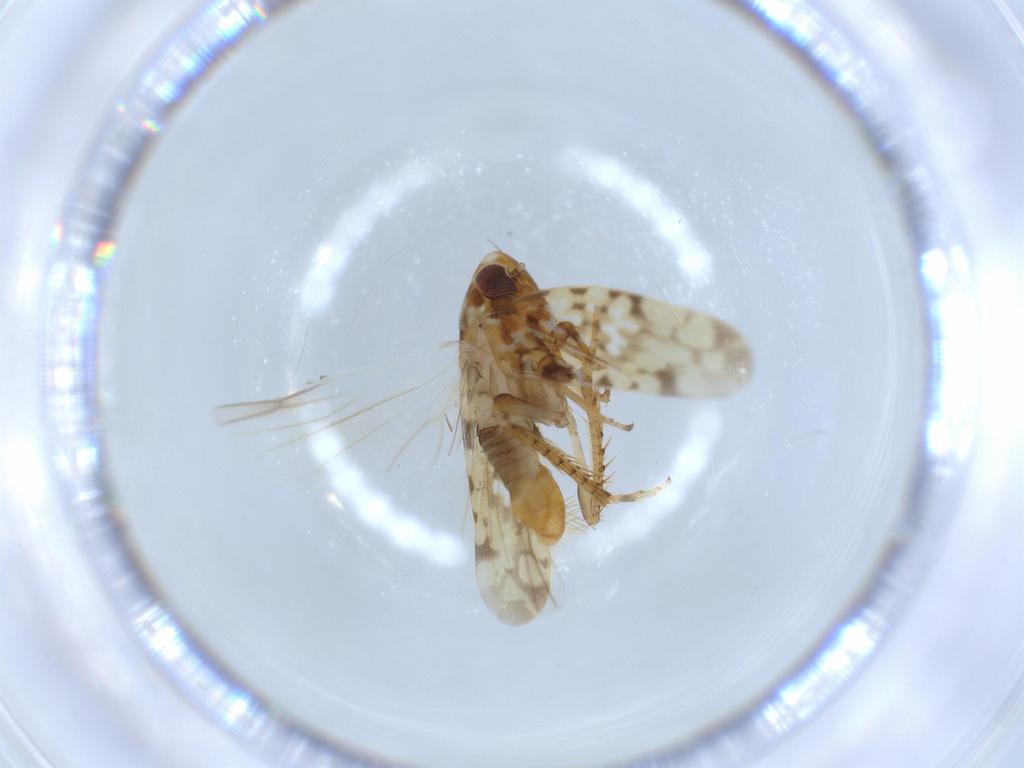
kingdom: Animalia
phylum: Arthropoda
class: Insecta
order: Hemiptera
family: Cicadellidae
